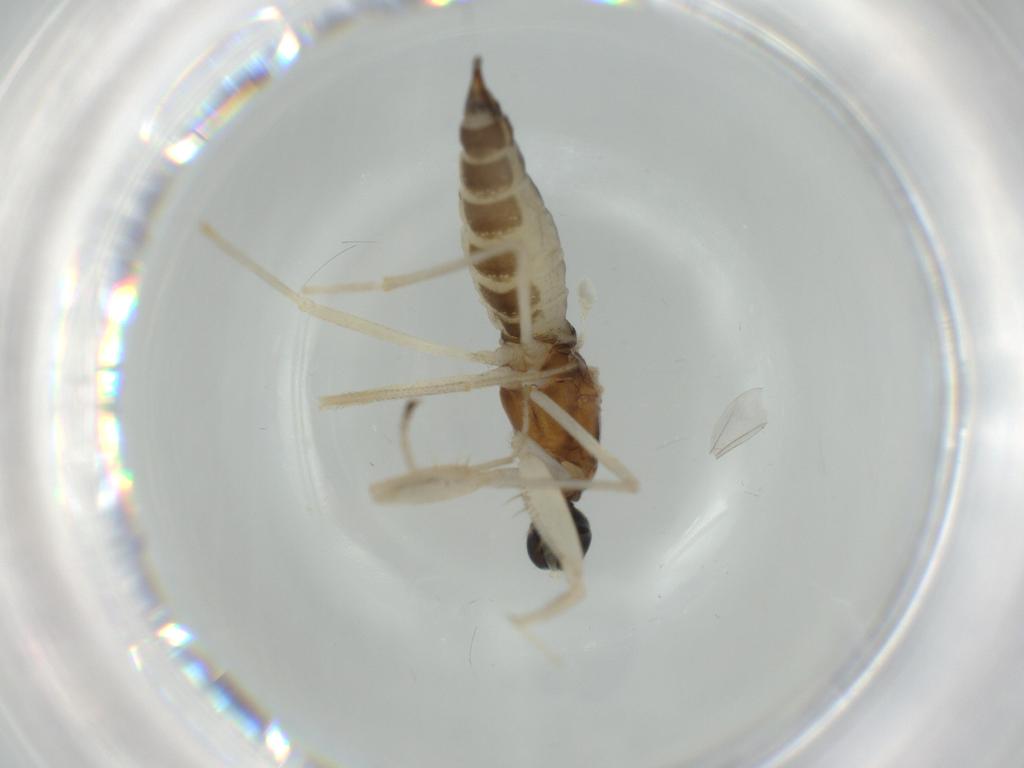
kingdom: Animalia
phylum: Arthropoda
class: Insecta
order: Diptera
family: Empididae
